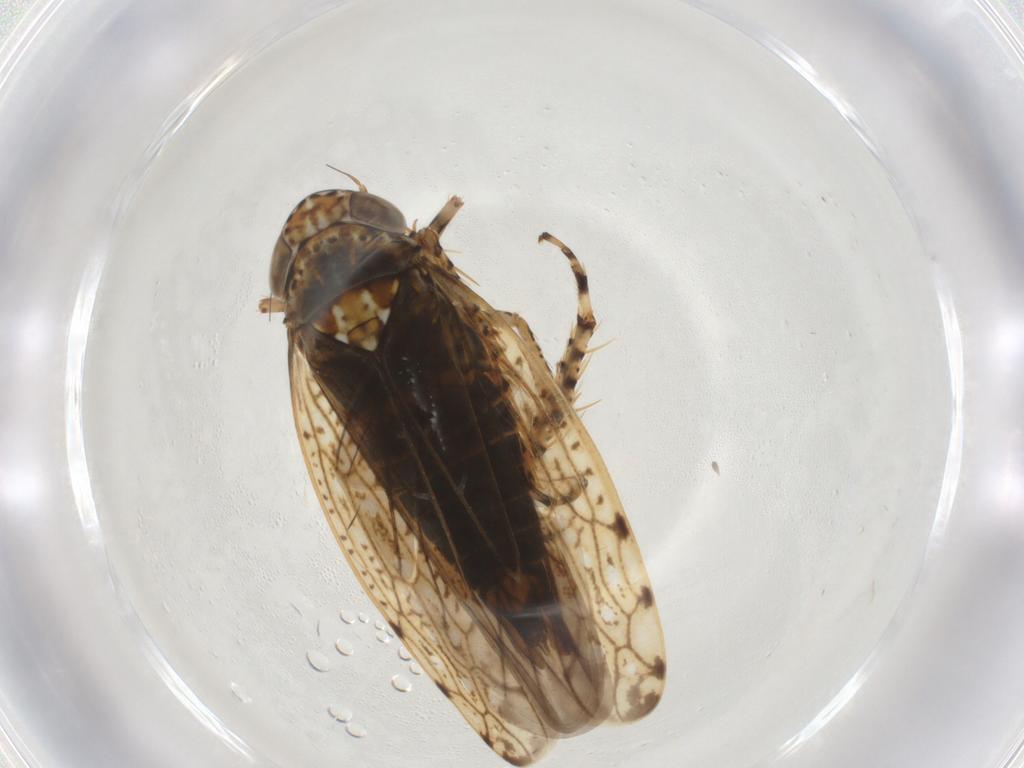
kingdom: Animalia
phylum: Arthropoda
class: Insecta
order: Hemiptera
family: Cicadellidae
